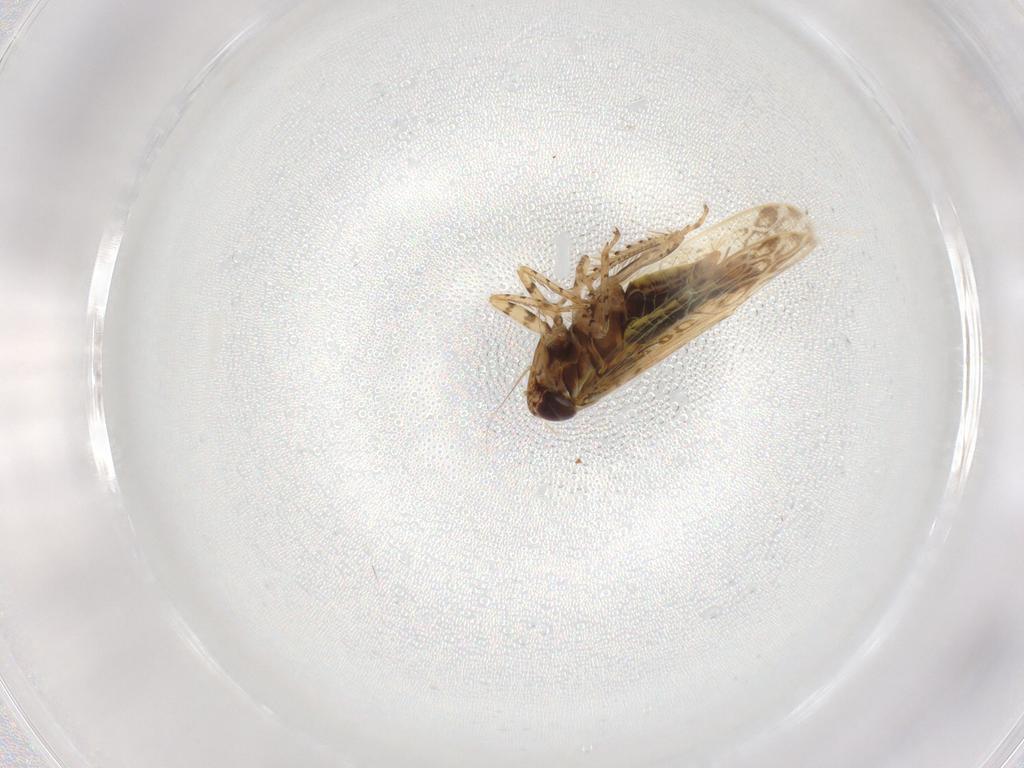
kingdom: Animalia
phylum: Arthropoda
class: Insecta
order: Hemiptera
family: Cicadellidae
